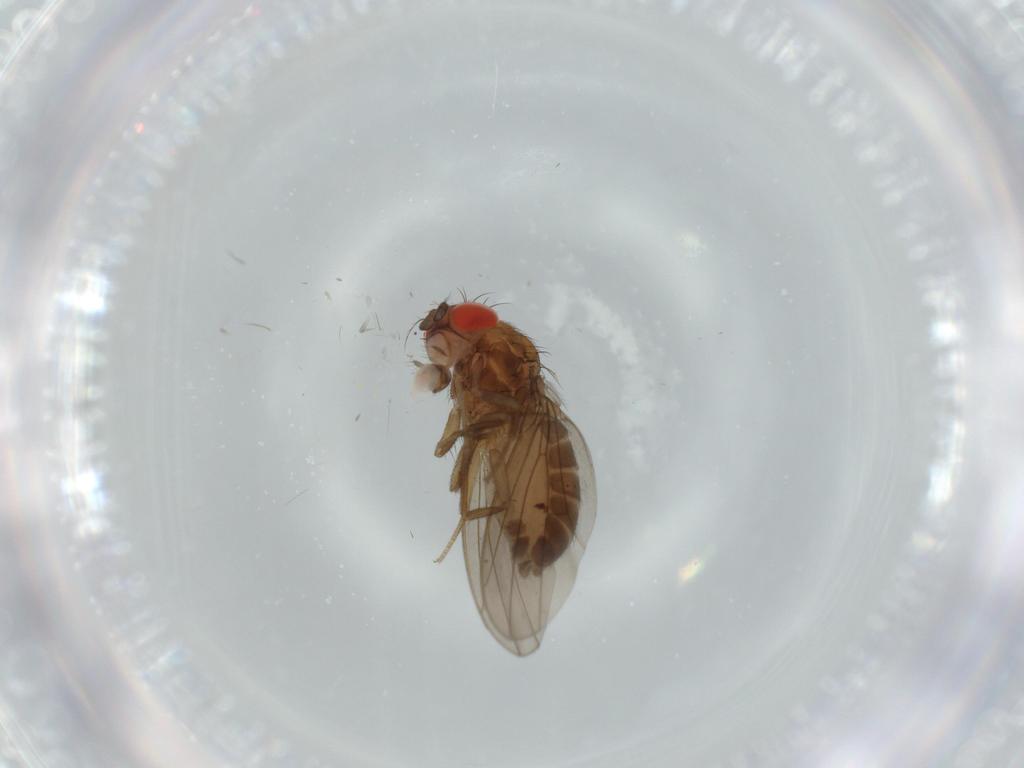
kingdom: Animalia
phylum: Arthropoda
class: Insecta
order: Diptera
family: Drosophilidae
